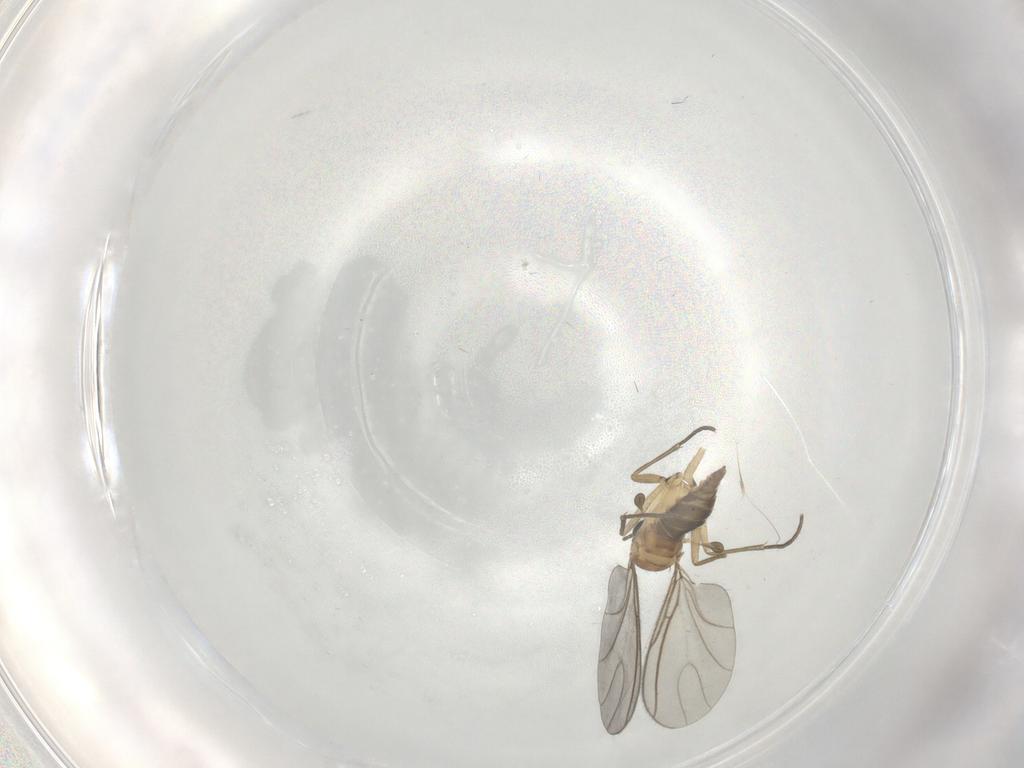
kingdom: Animalia
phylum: Arthropoda
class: Insecta
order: Diptera
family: Sciaridae
